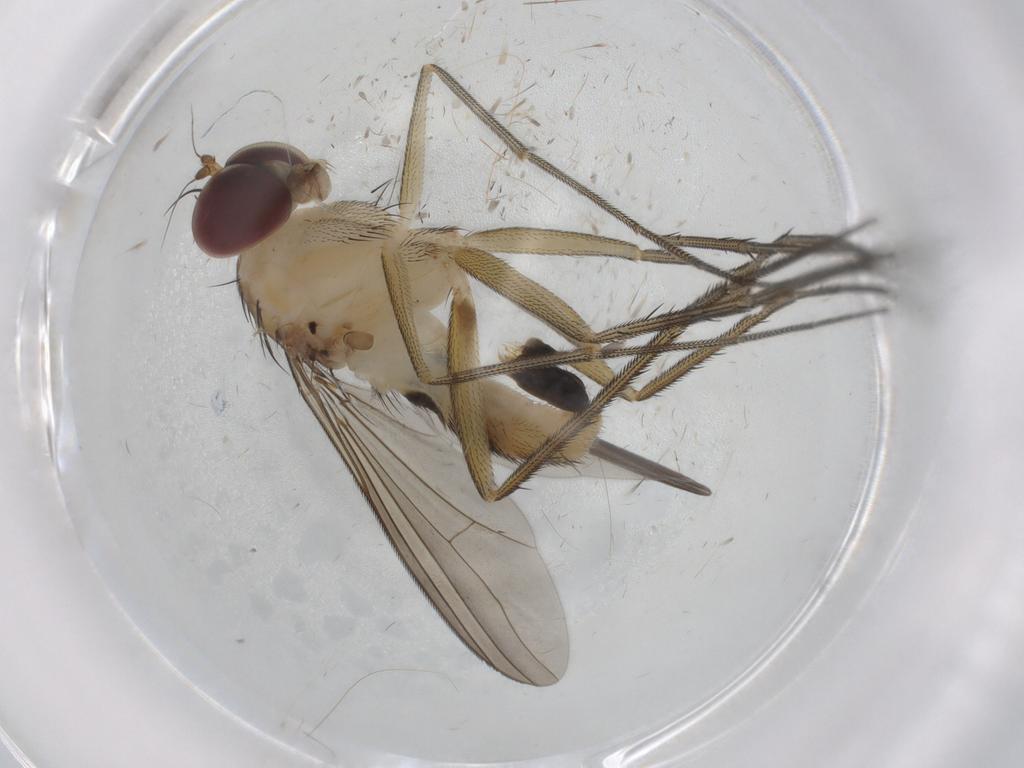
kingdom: Animalia
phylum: Arthropoda
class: Insecta
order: Diptera
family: Dolichopodidae
